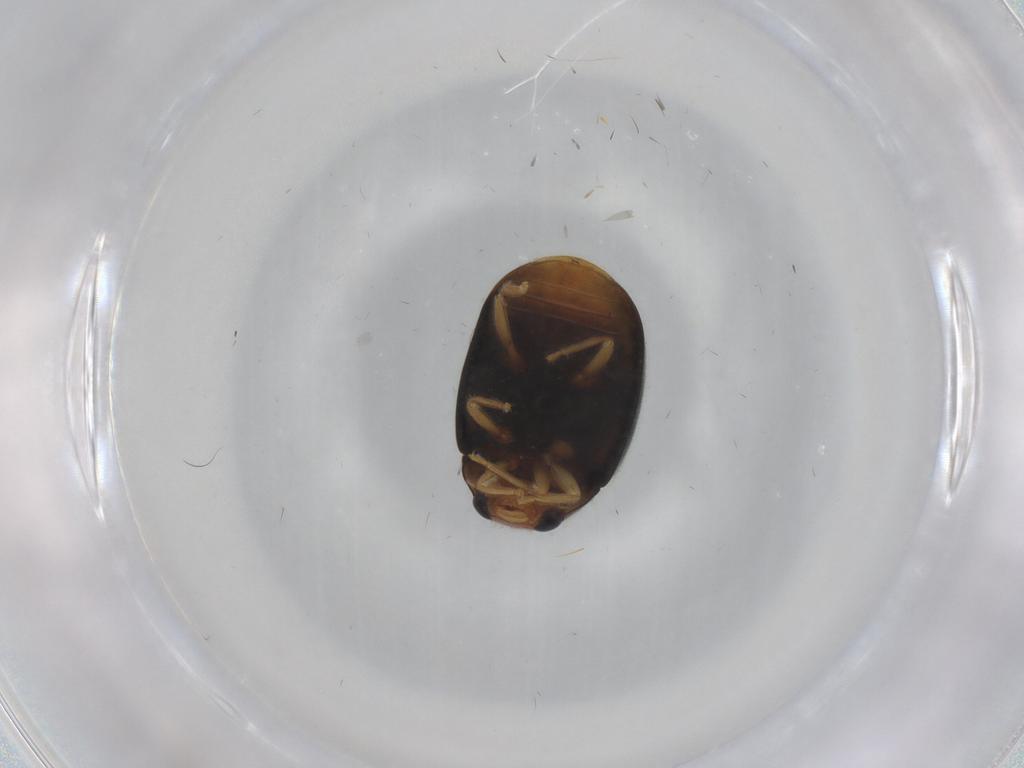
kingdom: Animalia
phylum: Arthropoda
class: Insecta
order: Coleoptera
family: Coccinellidae
